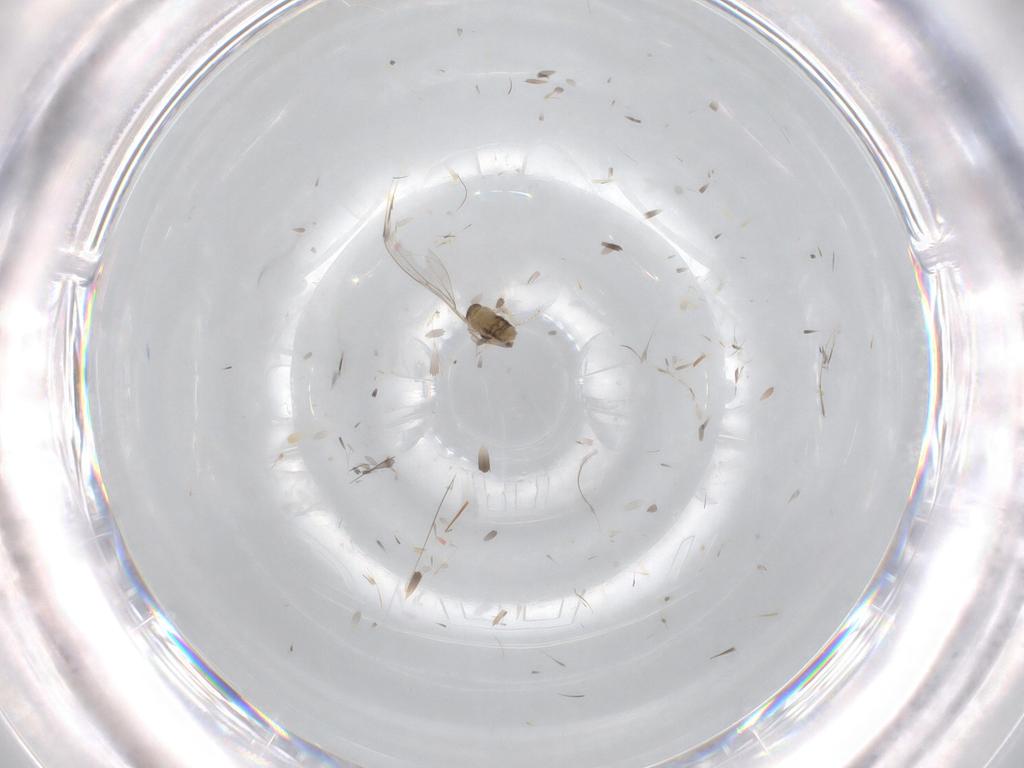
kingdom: Animalia
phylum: Arthropoda
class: Insecta
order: Diptera
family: Cecidomyiidae
